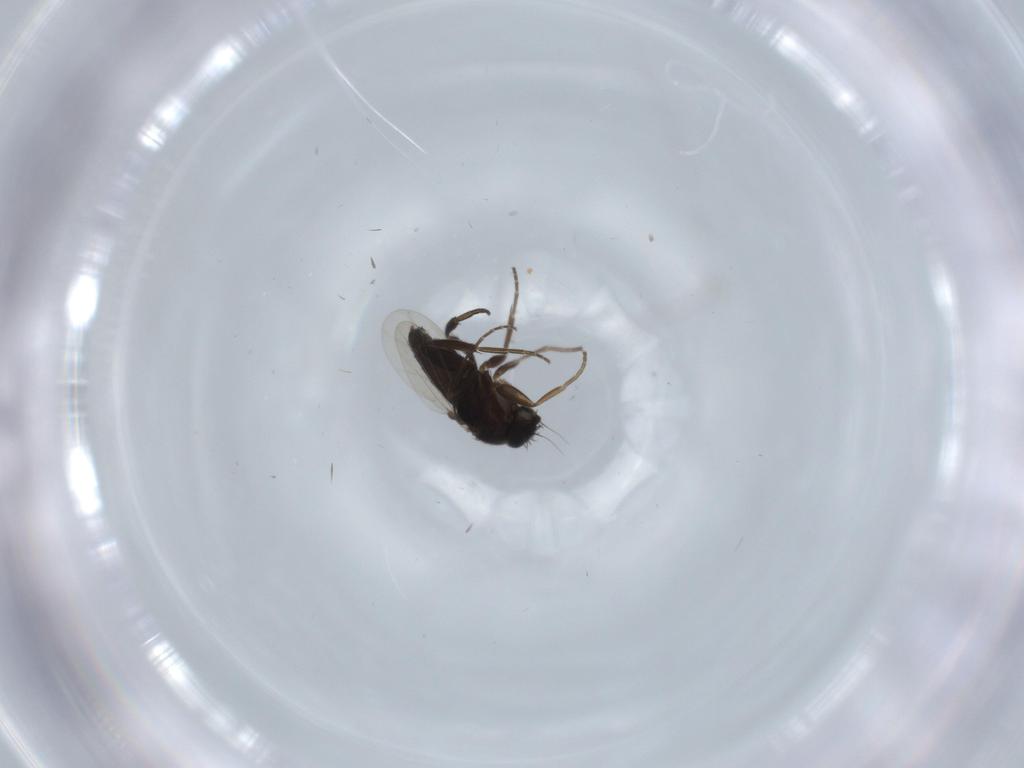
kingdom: Animalia
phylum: Arthropoda
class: Insecta
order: Diptera
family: Phoridae
